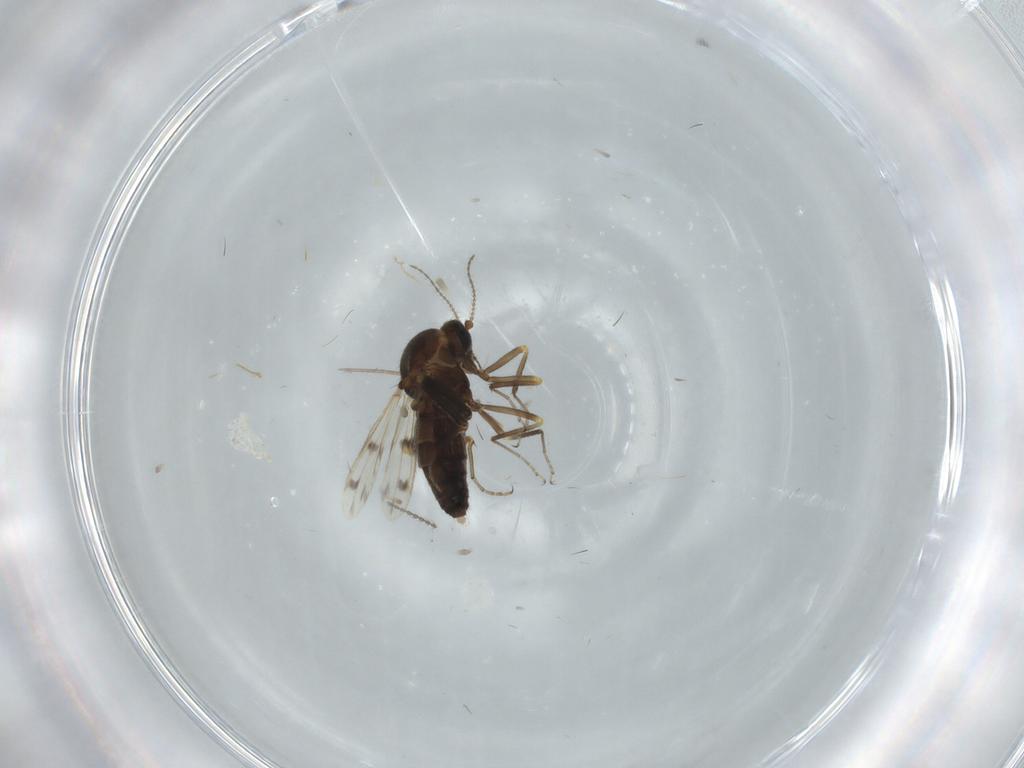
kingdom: Animalia
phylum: Arthropoda
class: Insecta
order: Diptera
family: Ceratopogonidae
